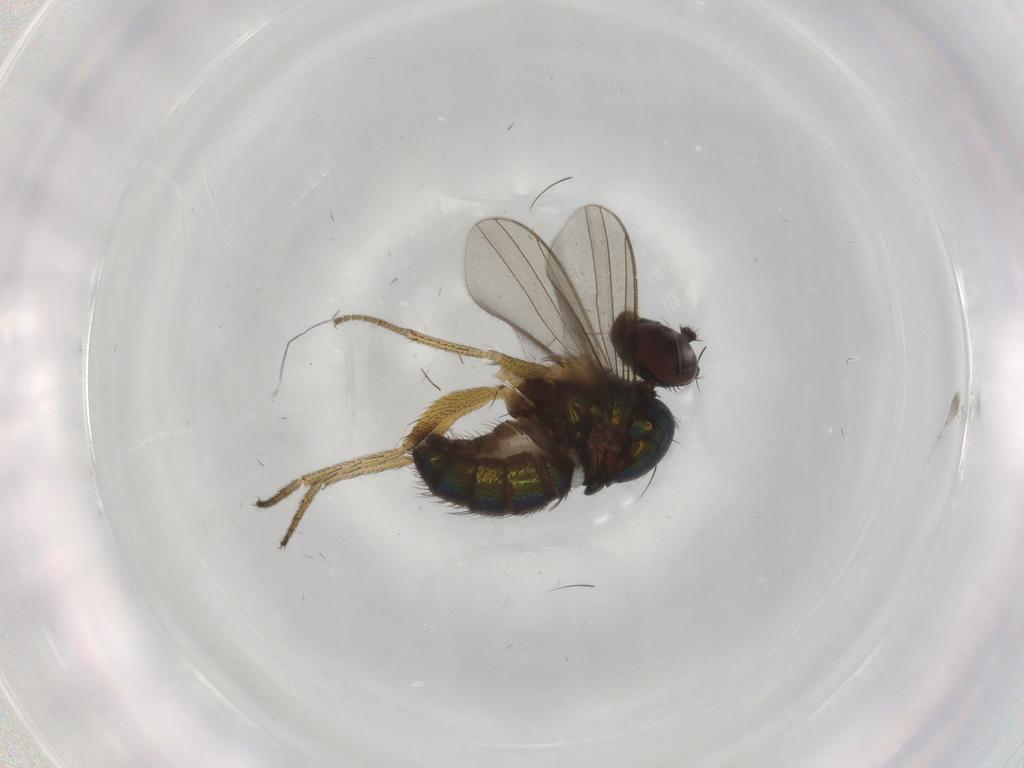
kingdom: Animalia
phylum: Arthropoda
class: Insecta
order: Diptera
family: Dolichopodidae
